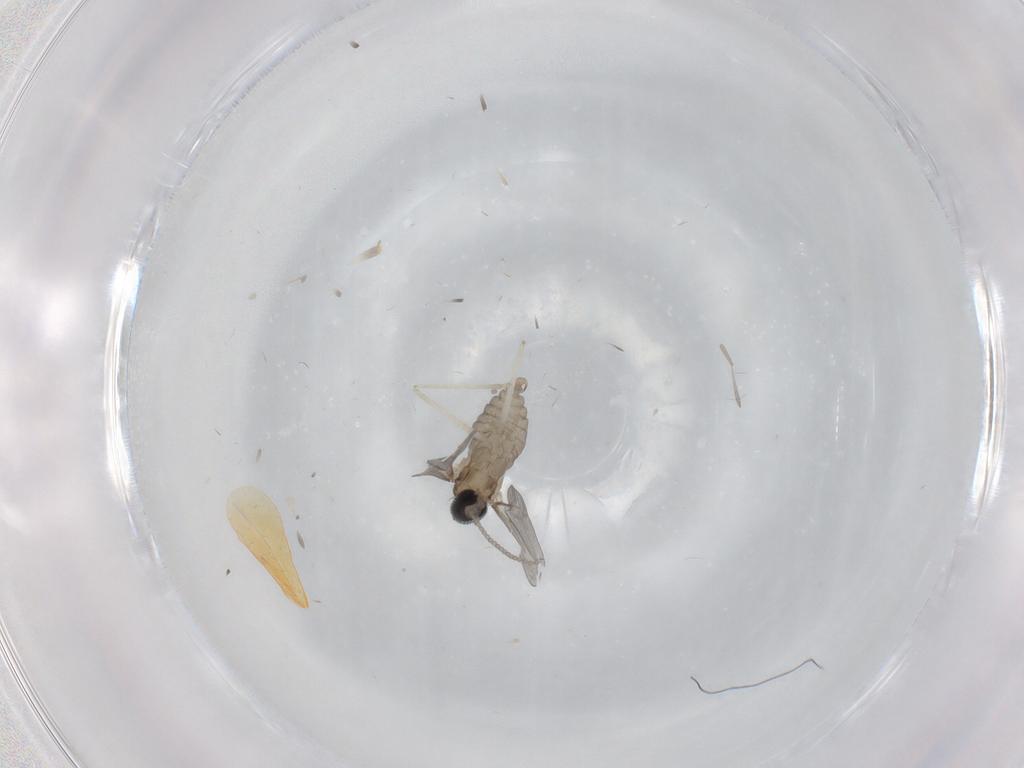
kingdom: Animalia
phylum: Arthropoda
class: Insecta
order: Diptera
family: Cecidomyiidae
